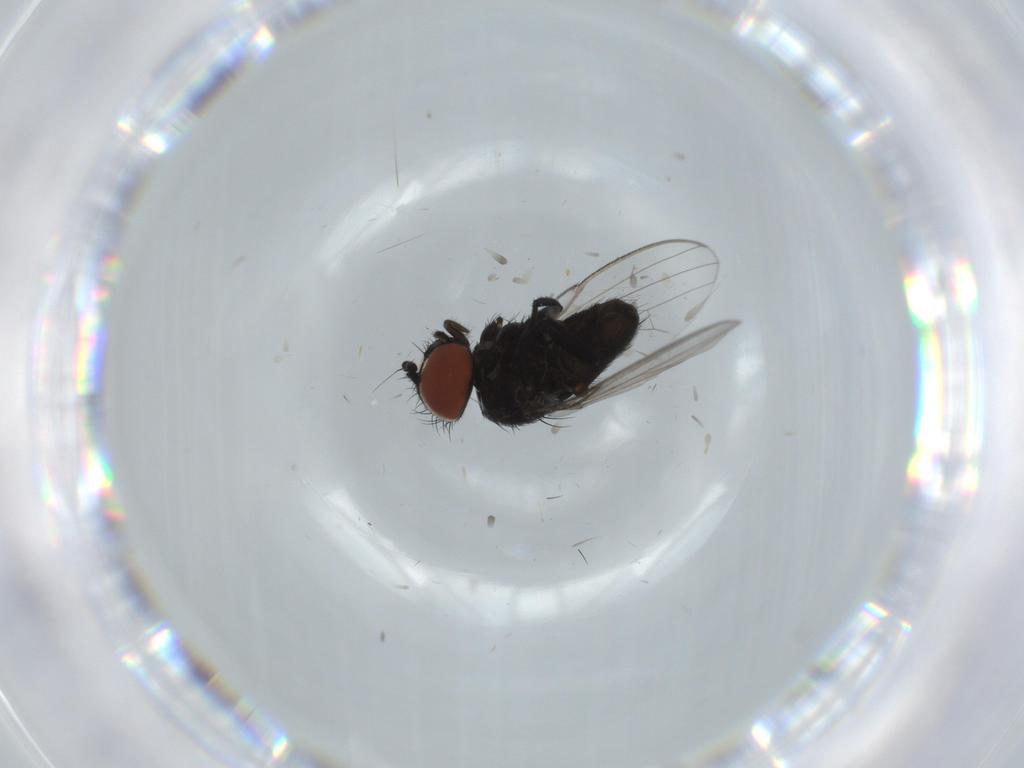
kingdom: Animalia
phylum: Arthropoda
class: Insecta
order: Diptera
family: Milichiidae
